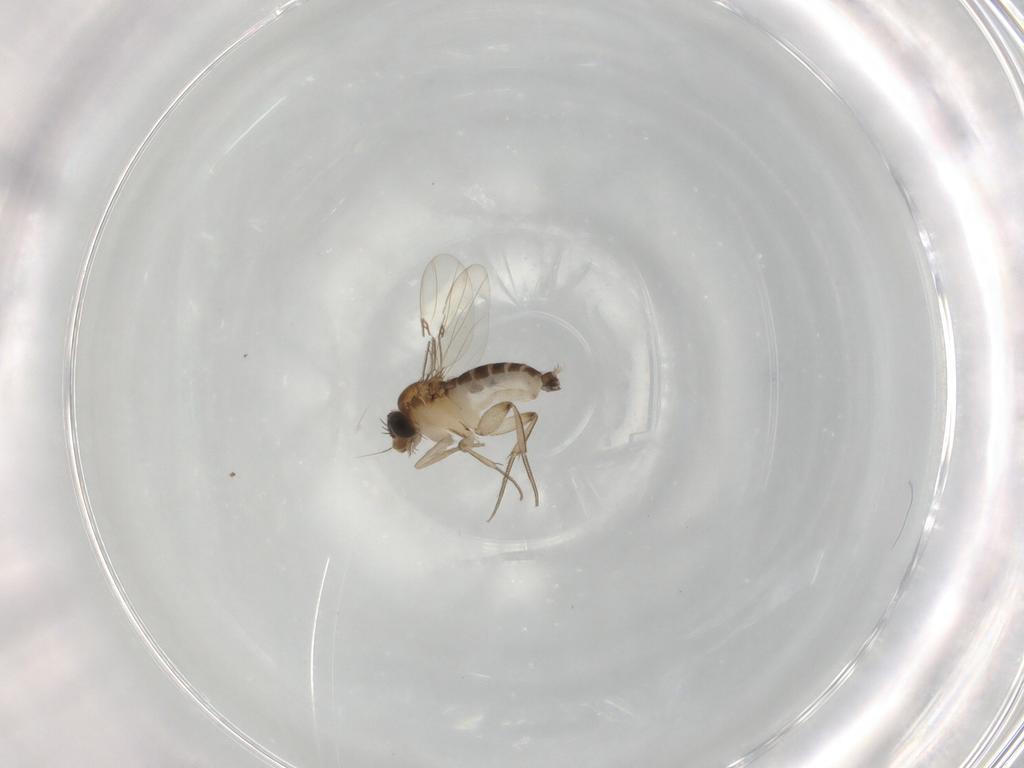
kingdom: Animalia
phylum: Arthropoda
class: Insecta
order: Diptera
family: Phoridae
